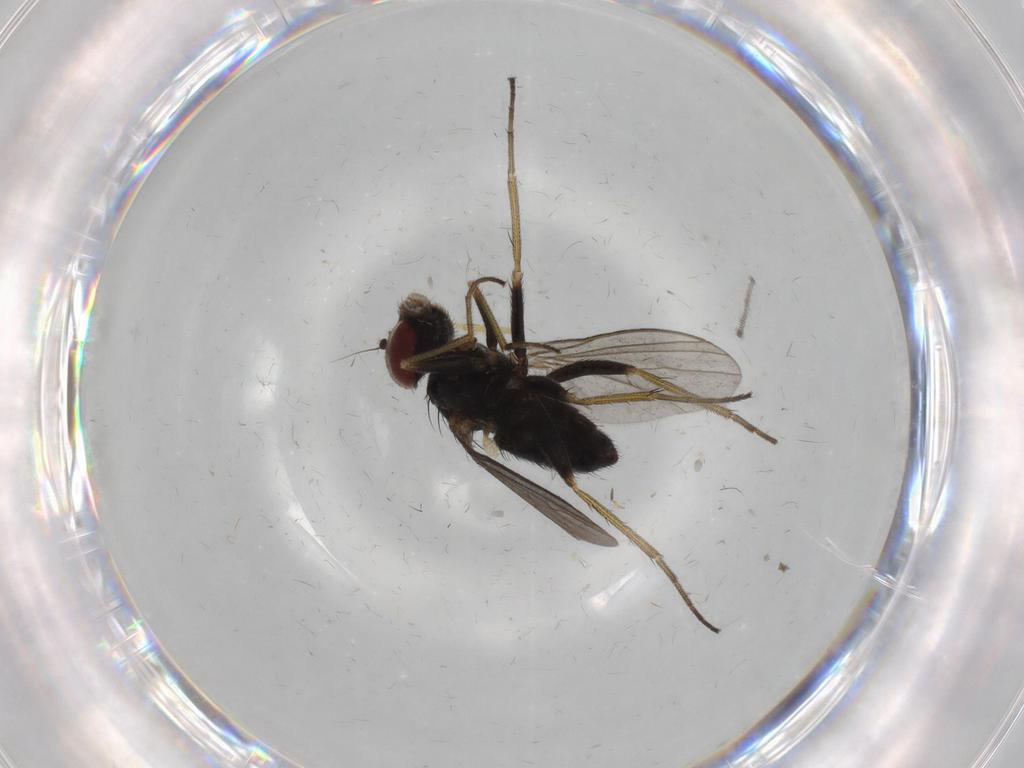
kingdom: Animalia
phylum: Arthropoda
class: Insecta
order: Diptera
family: Dolichopodidae
